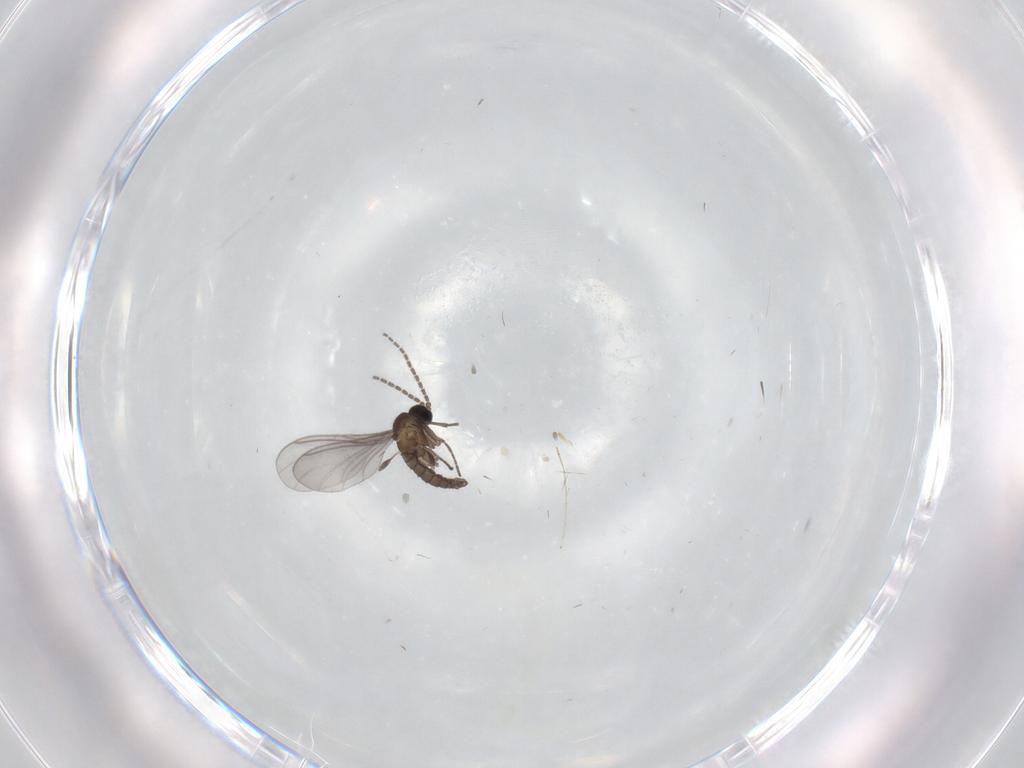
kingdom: Animalia
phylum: Arthropoda
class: Insecta
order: Diptera
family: Sciaridae
